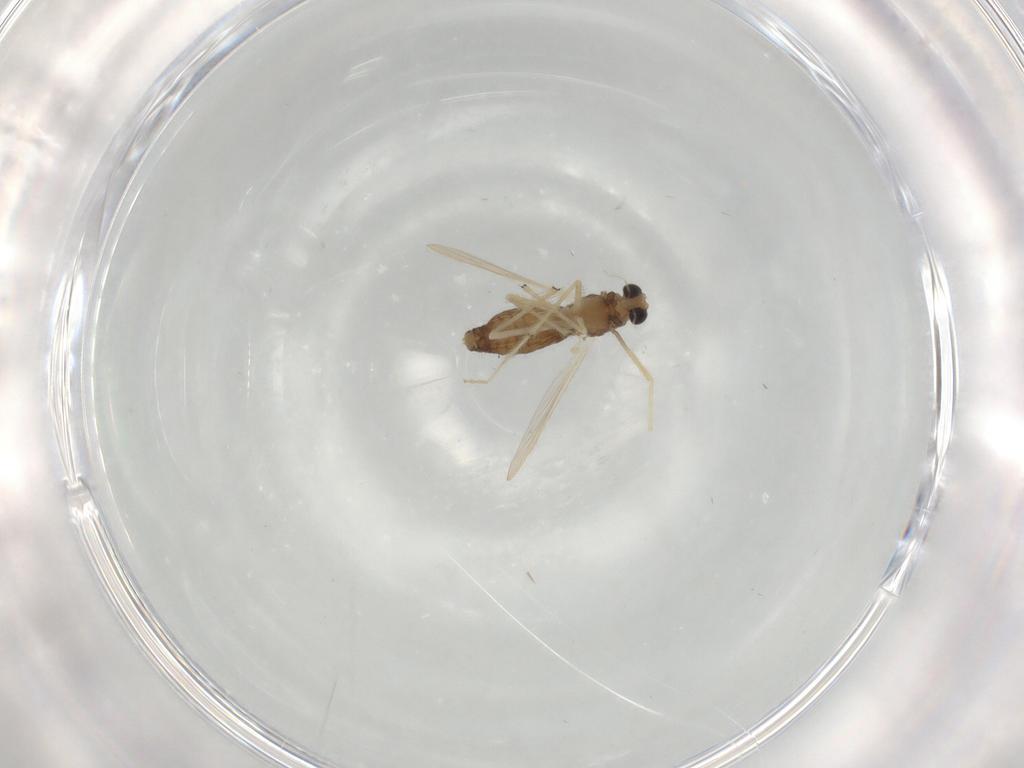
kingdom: Animalia
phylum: Arthropoda
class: Insecta
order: Diptera
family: Chironomidae
